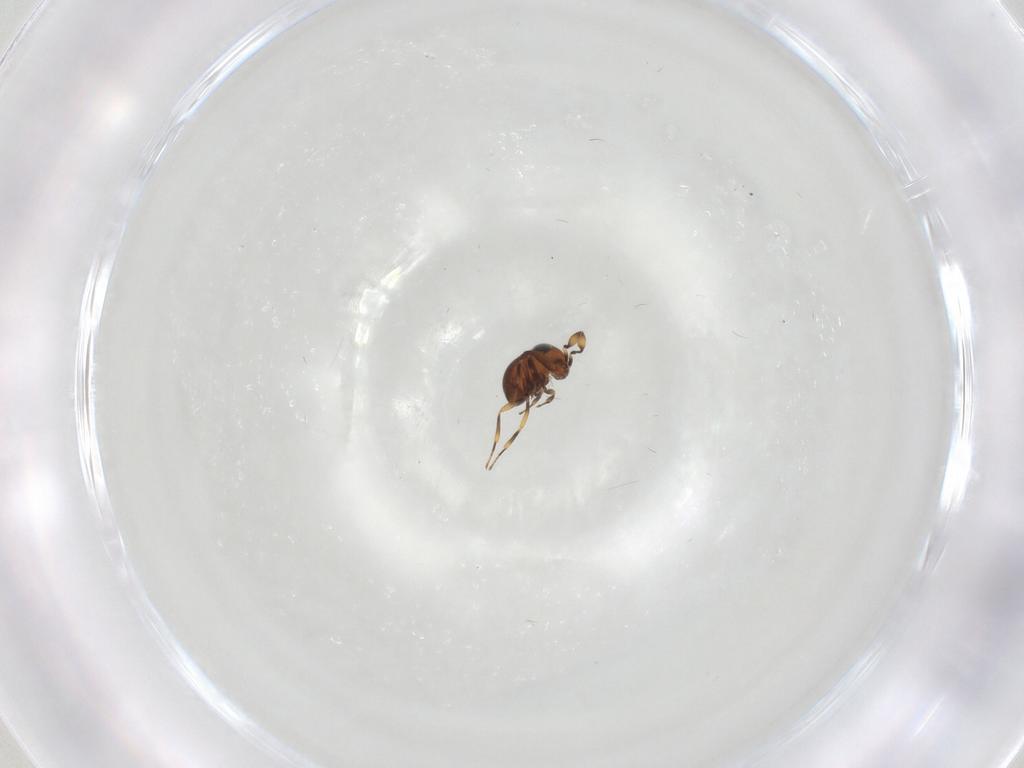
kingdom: Animalia
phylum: Arthropoda
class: Insecta
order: Hymenoptera
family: Scelionidae
